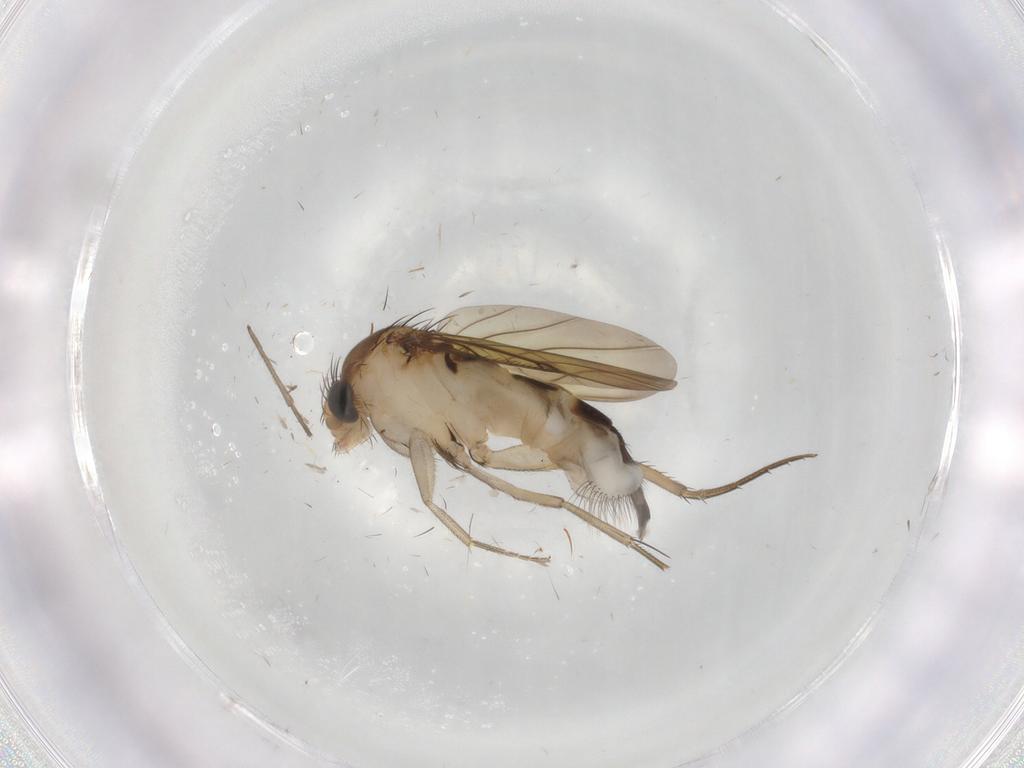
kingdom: Animalia
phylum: Arthropoda
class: Insecta
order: Diptera
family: Phoridae
